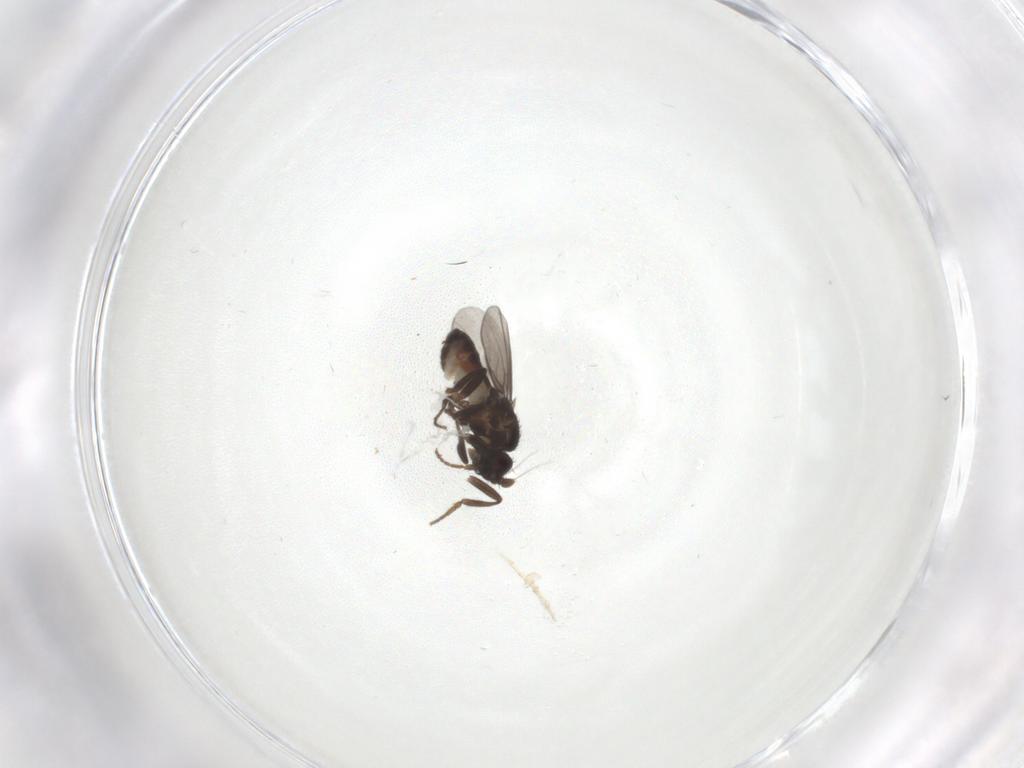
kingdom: Animalia
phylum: Arthropoda
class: Insecta
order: Diptera
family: Sphaeroceridae
